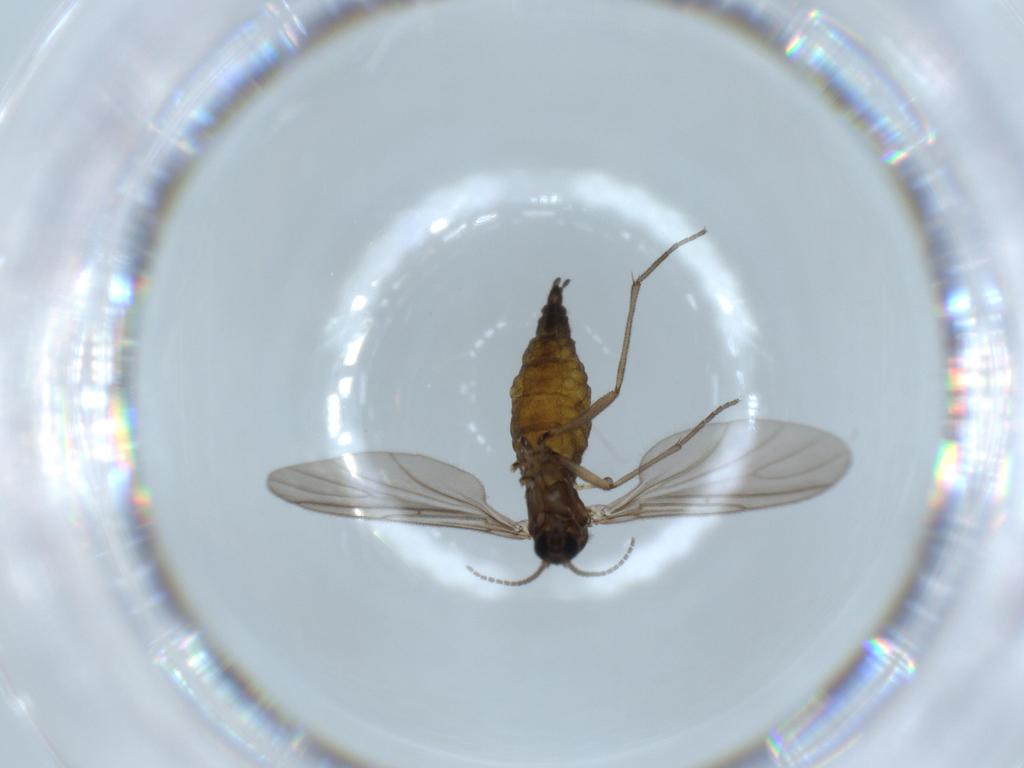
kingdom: Animalia
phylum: Arthropoda
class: Insecta
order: Diptera
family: Sciaridae
